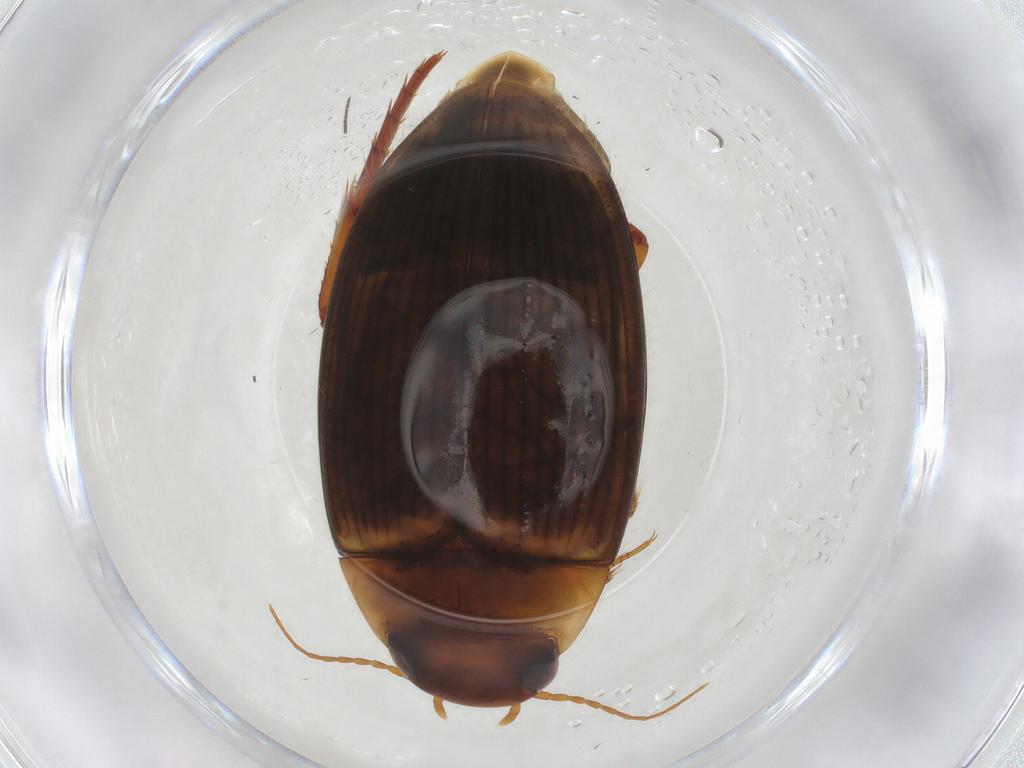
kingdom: Animalia
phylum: Arthropoda
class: Insecta
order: Coleoptera
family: Dytiscidae
